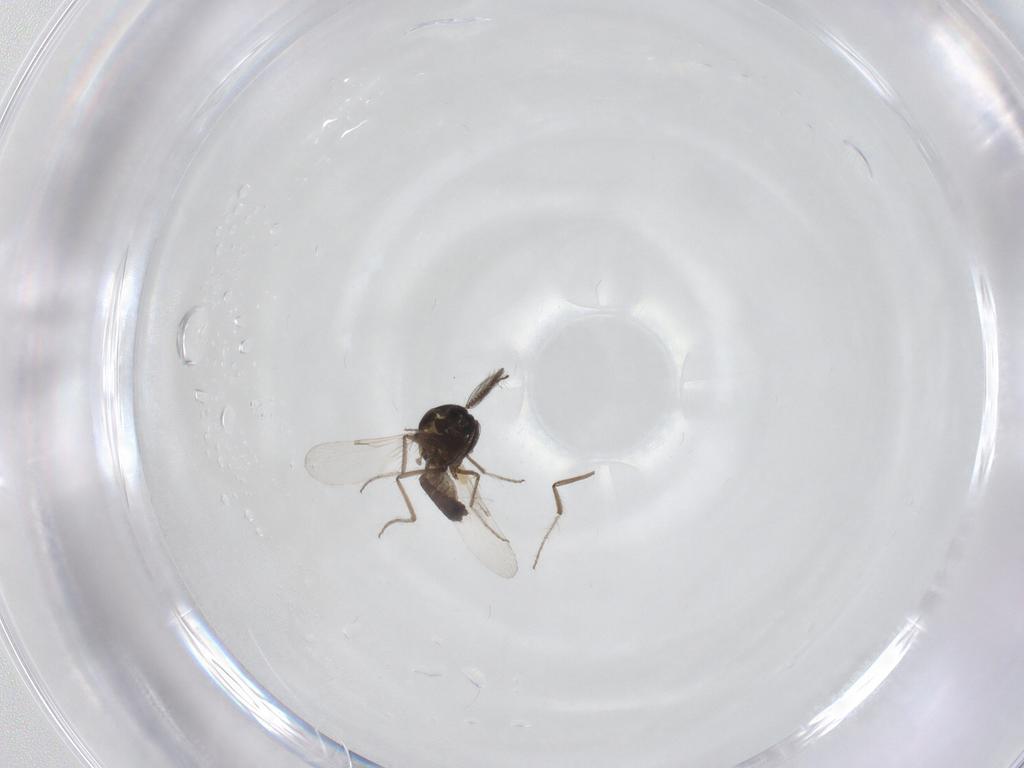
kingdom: Animalia
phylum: Arthropoda
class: Insecta
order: Diptera
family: Ceratopogonidae
